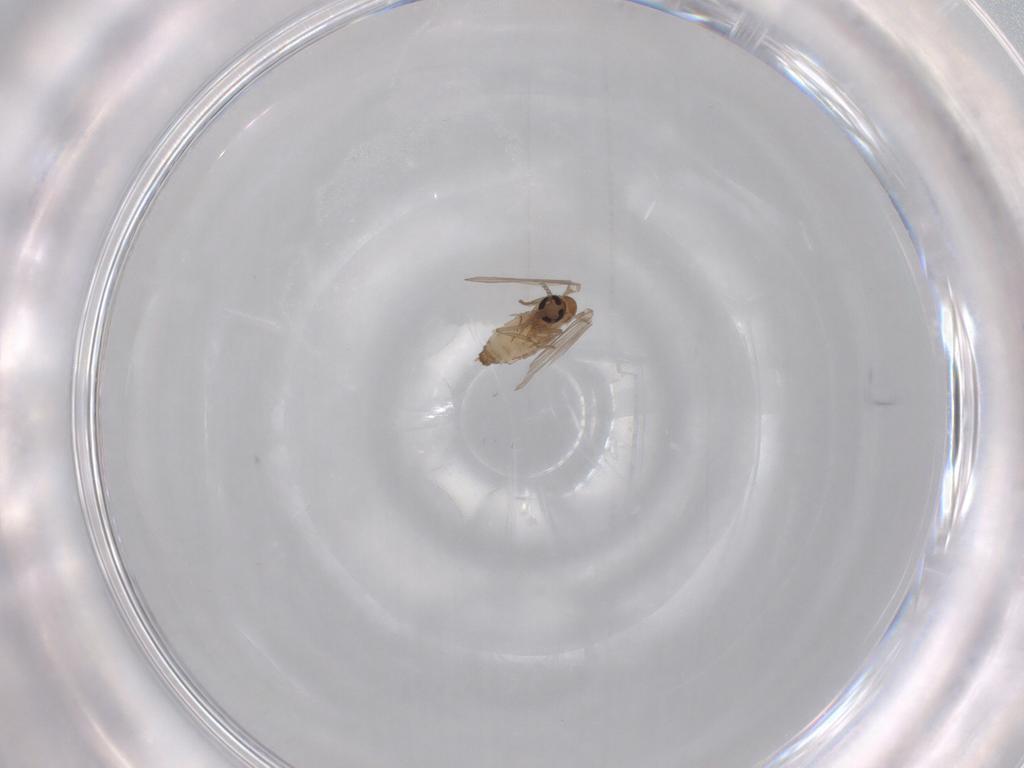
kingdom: Animalia
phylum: Arthropoda
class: Insecta
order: Diptera
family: Psychodidae
